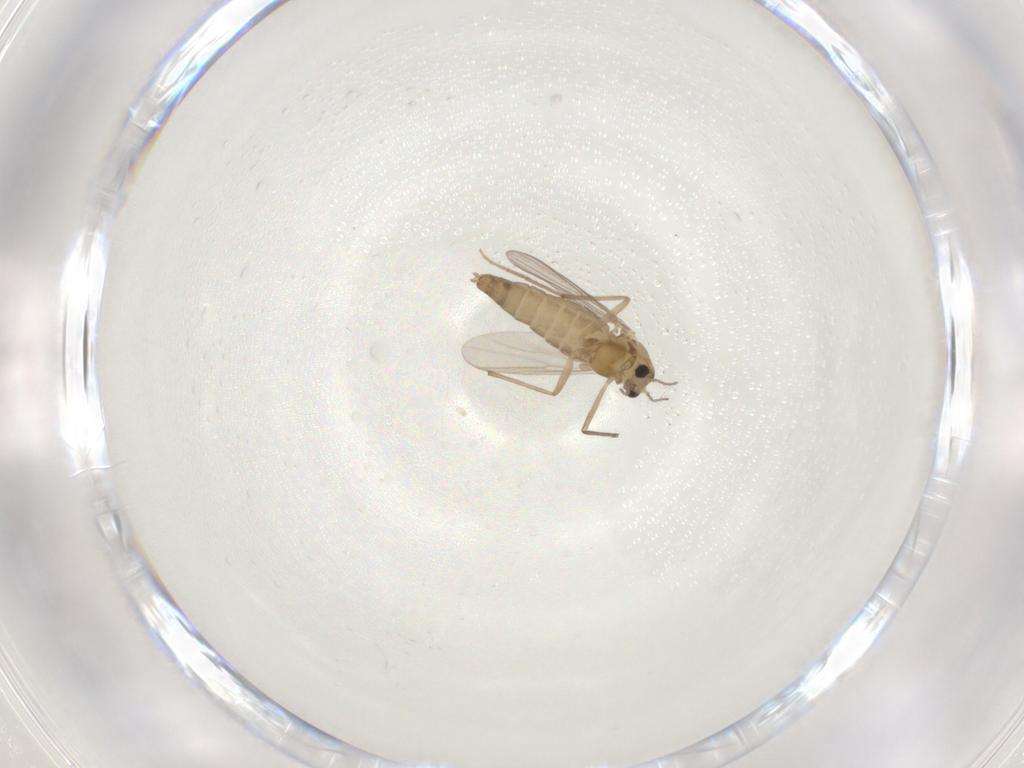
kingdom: Animalia
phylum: Arthropoda
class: Insecta
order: Diptera
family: Chironomidae
